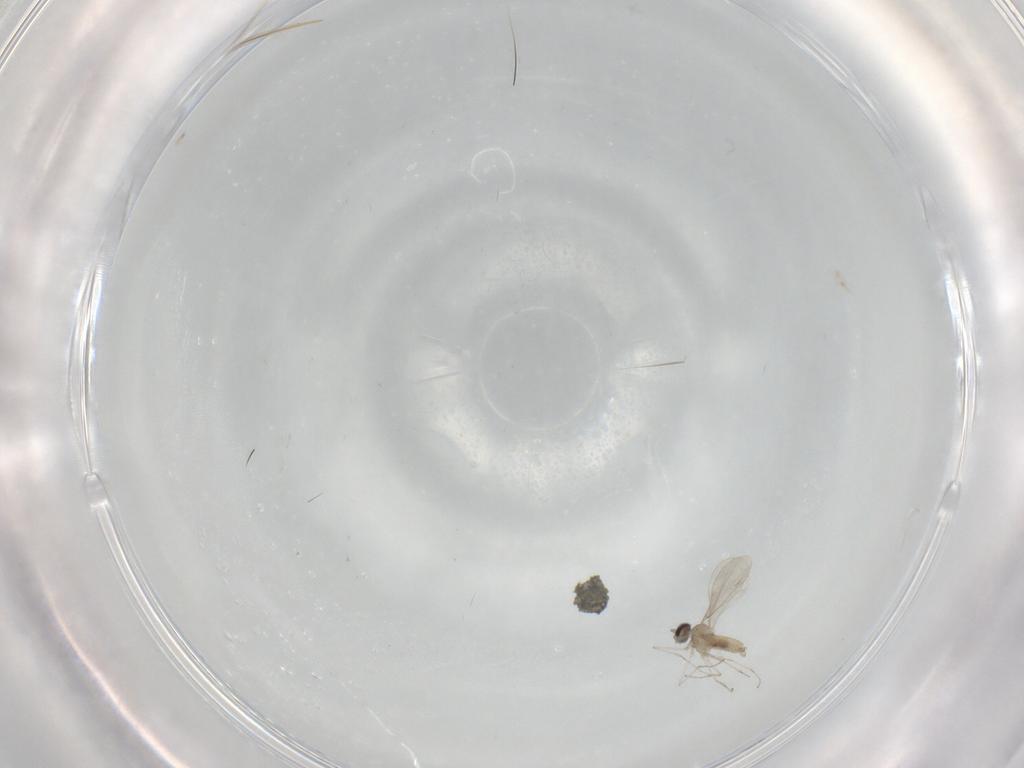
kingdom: Animalia
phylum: Arthropoda
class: Insecta
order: Diptera
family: Cecidomyiidae
